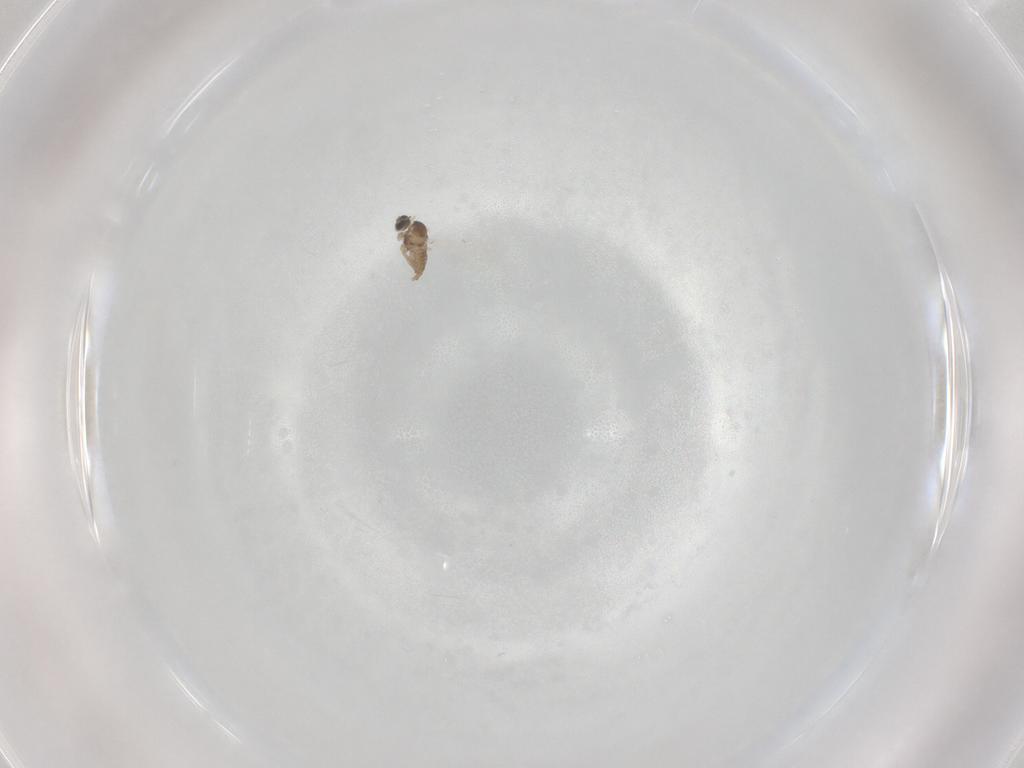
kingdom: Animalia
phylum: Arthropoda
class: Insecta
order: Diptera
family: Cecidomyiidae
